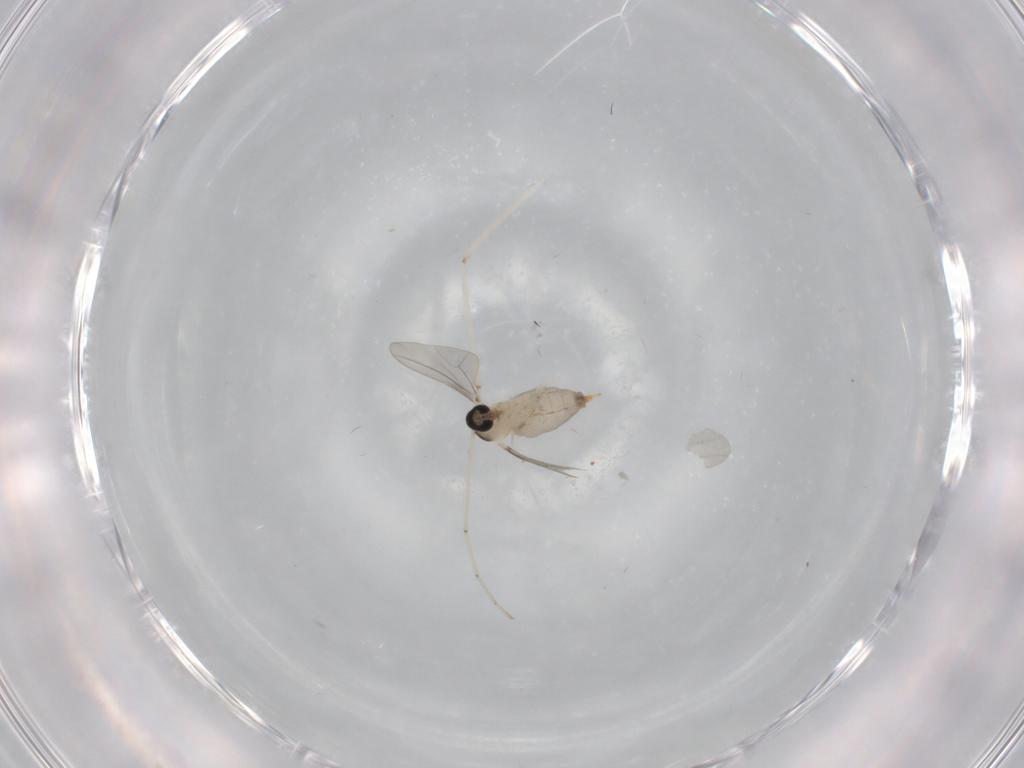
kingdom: Animalia
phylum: Arthropoda
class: Insecta
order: Diptera
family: Cecidomyiidae
